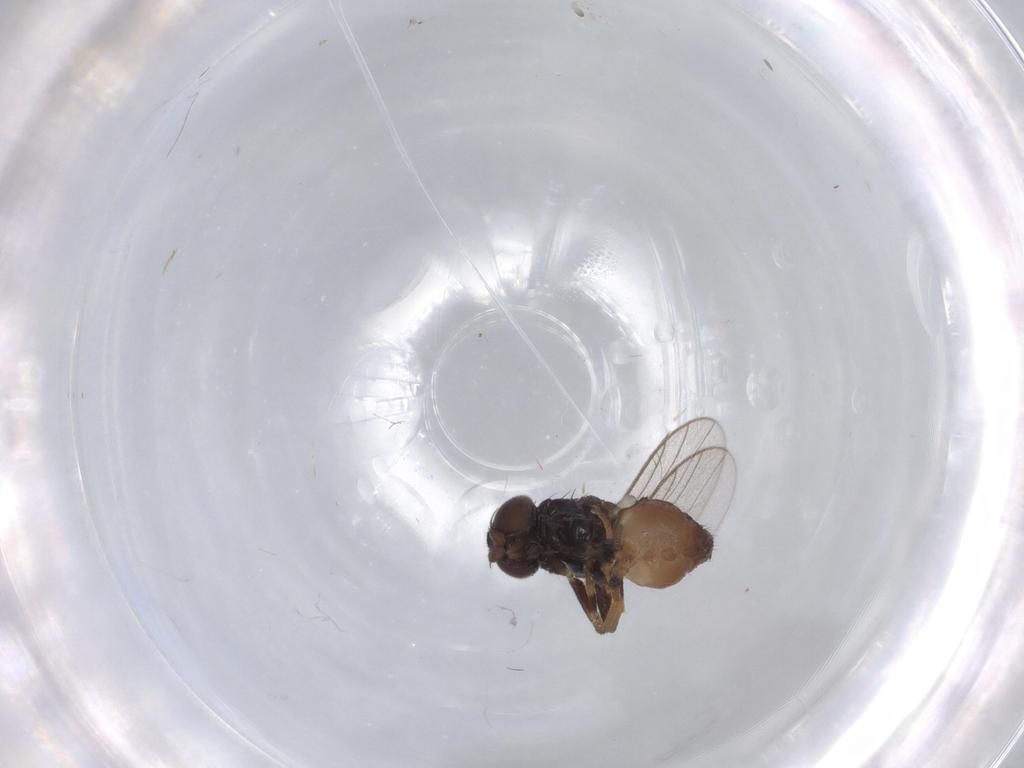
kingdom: Animalia
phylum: Arthropoda
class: Insecta
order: Diptera
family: Chloropidae
